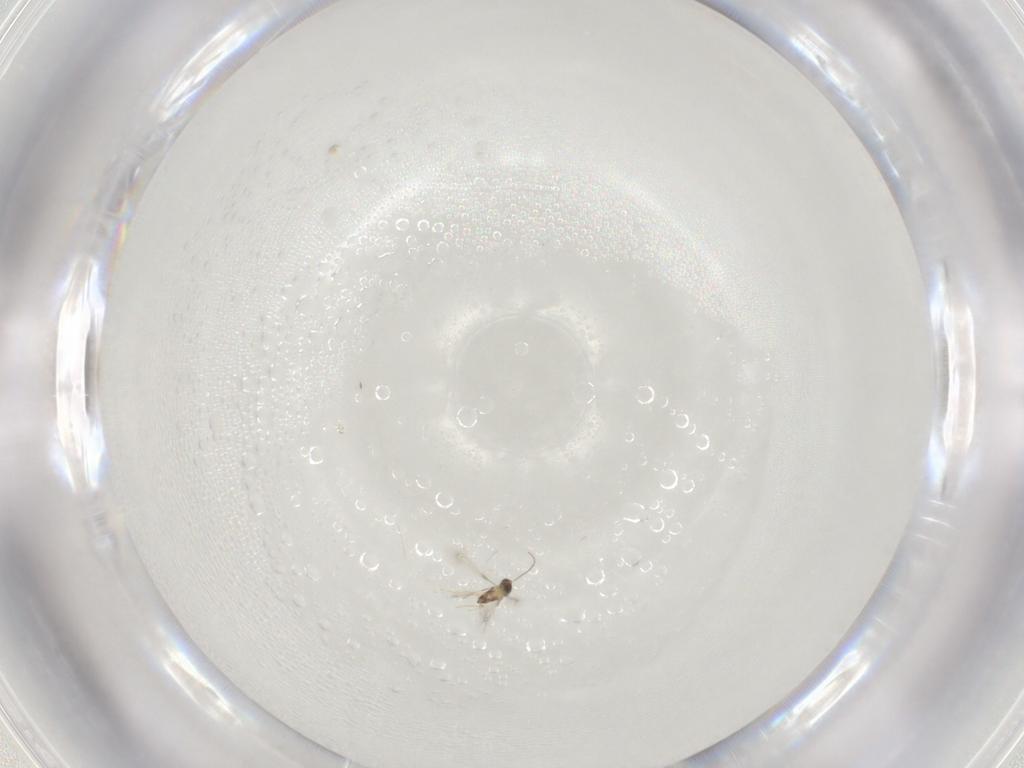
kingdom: Animalia
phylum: Arthropoda
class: Insecta
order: Hymenoptera
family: Mymaridae
